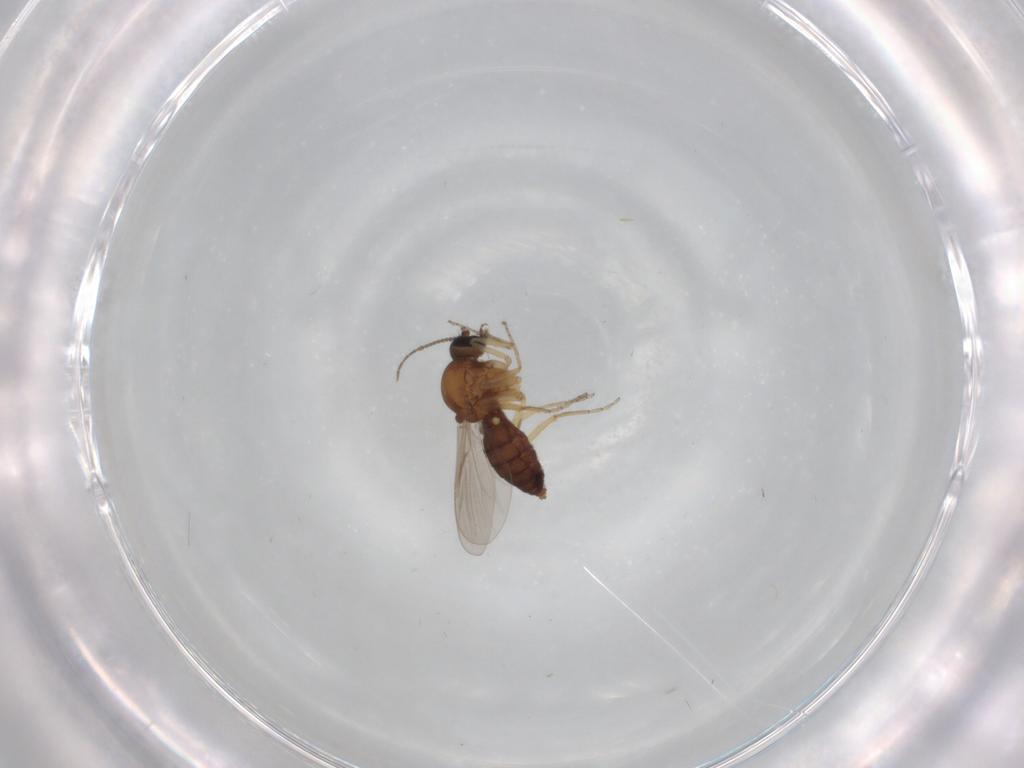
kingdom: Animalia
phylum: Arthropoda
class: Insecta
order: Diptera
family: Ceratopogonidae
